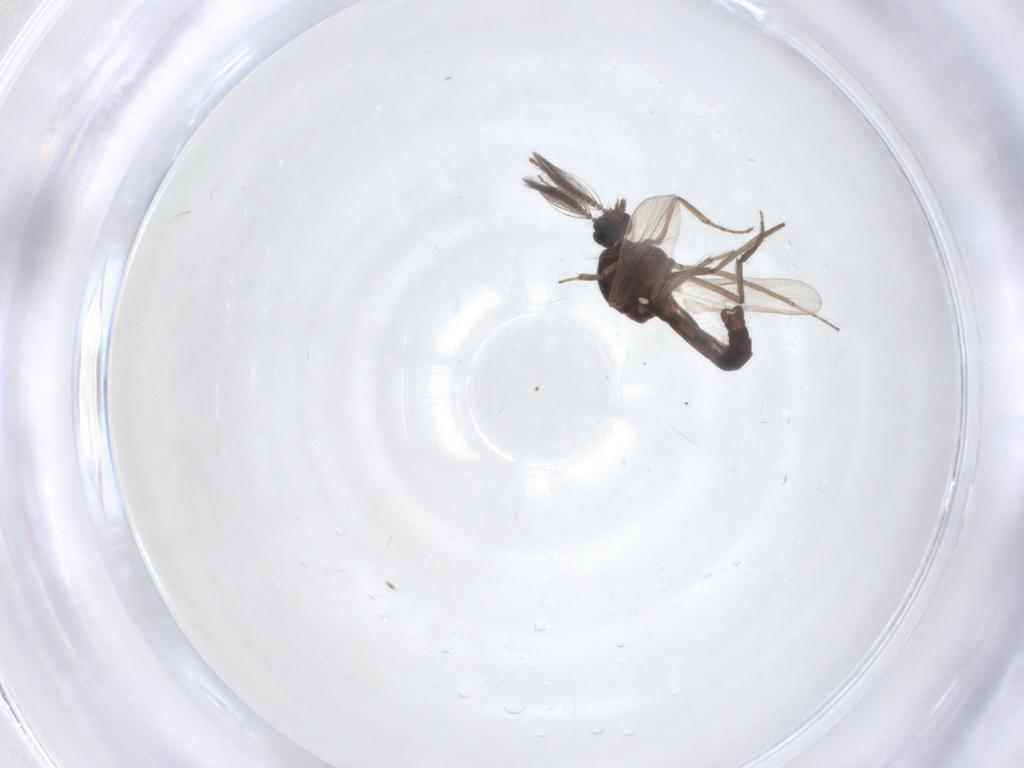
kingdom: Animalia
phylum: Arthropoda
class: Insecta
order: Diptera
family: Ceratopogonidae
